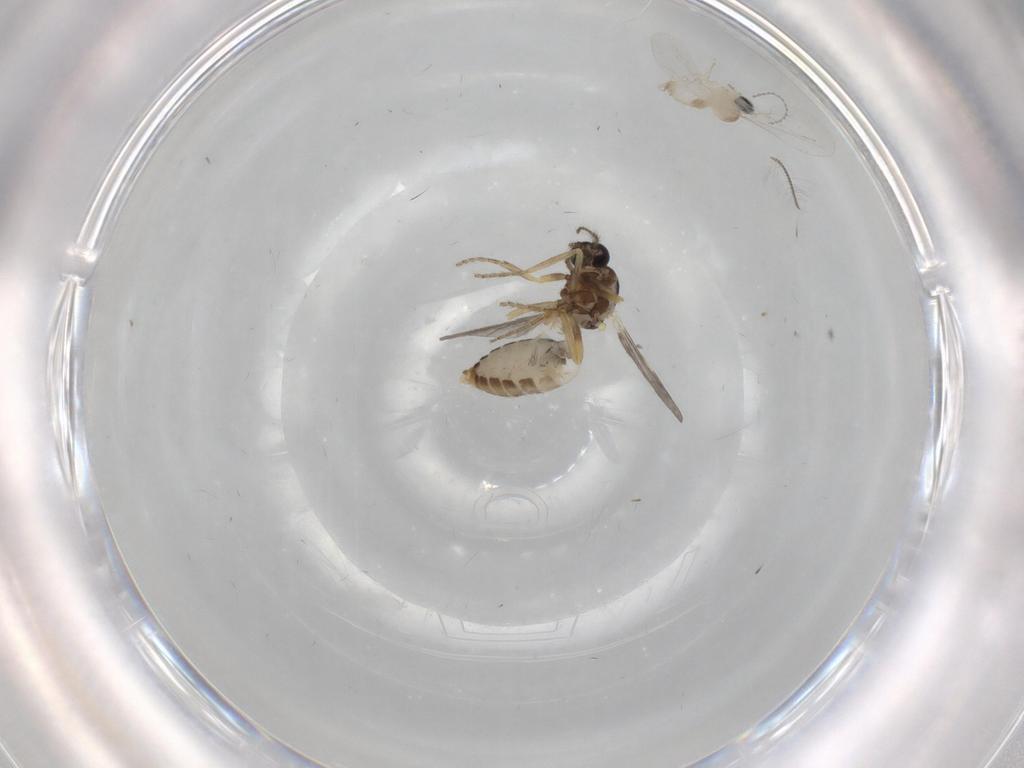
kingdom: Animalia
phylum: Arthropoda
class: Insecta
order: Diptera
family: Ceratopogonidae
